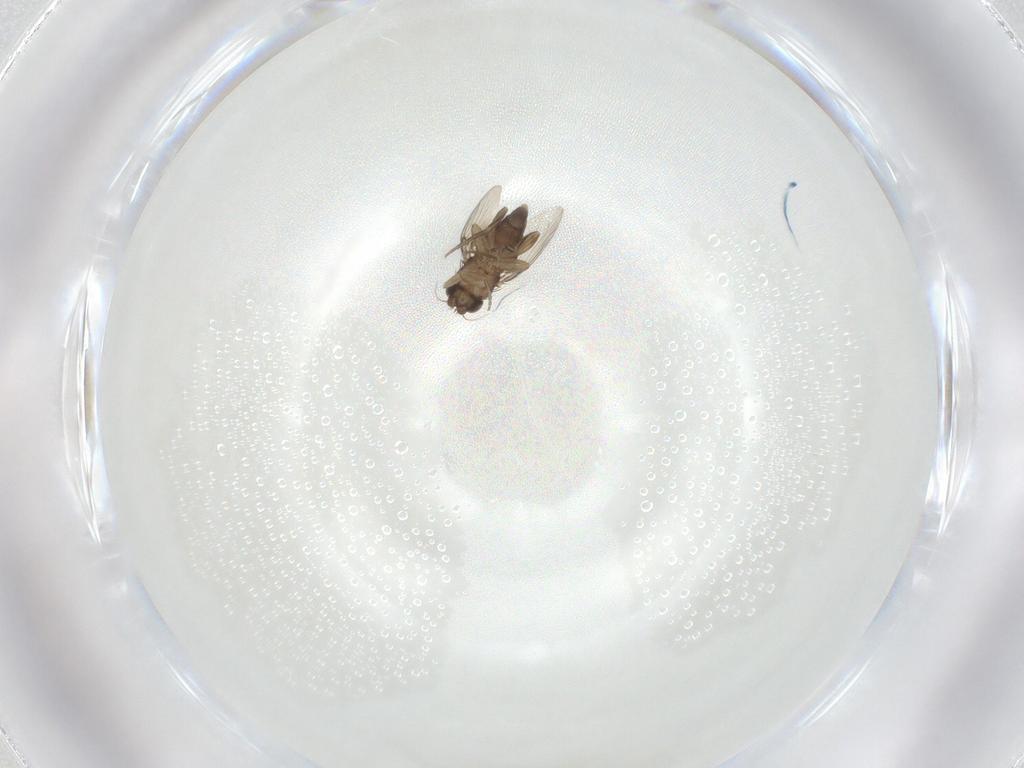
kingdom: Animalia
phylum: Arthropoda
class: Insecta
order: Diptera
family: Phoridae
